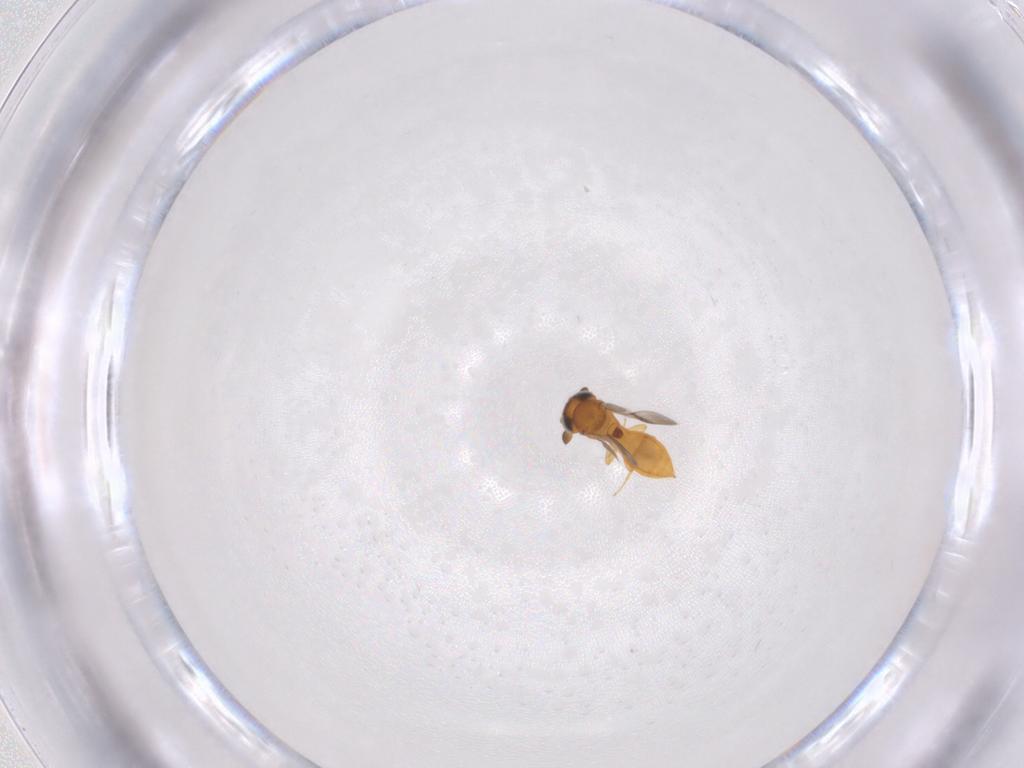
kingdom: Animalia
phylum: Arthropoda
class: Insecta
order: Hymenoptera
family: Scelionidae
